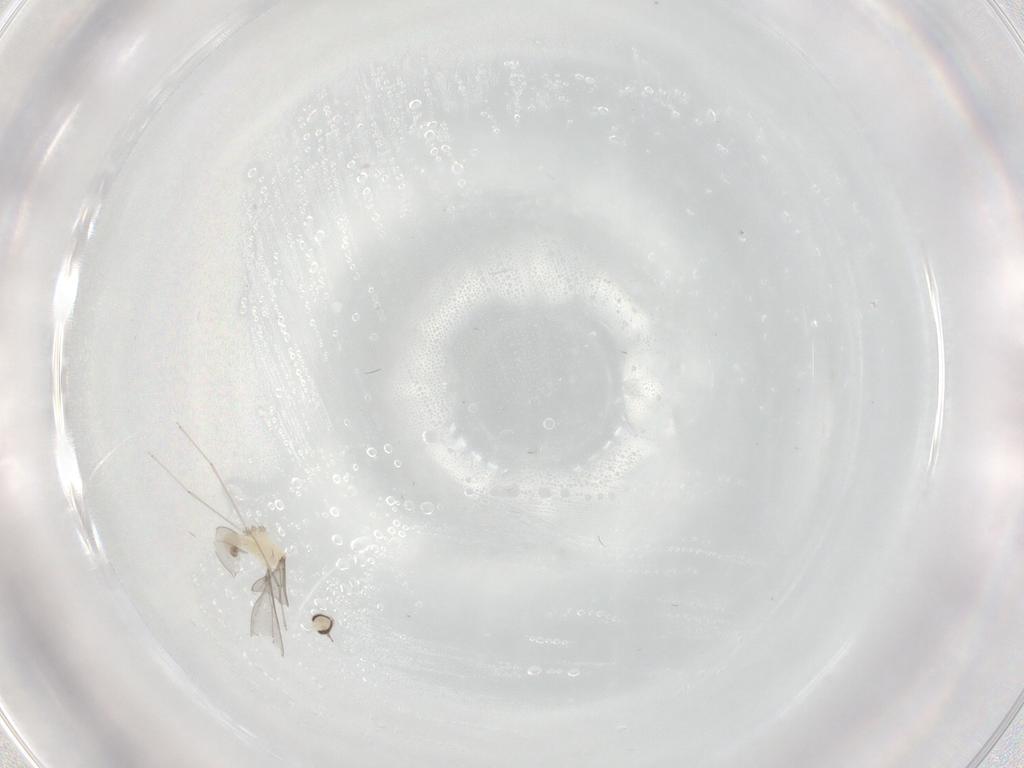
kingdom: Animalia
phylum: Arthropoda
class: Insecta
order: Diptera
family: Cecidomyiidae
